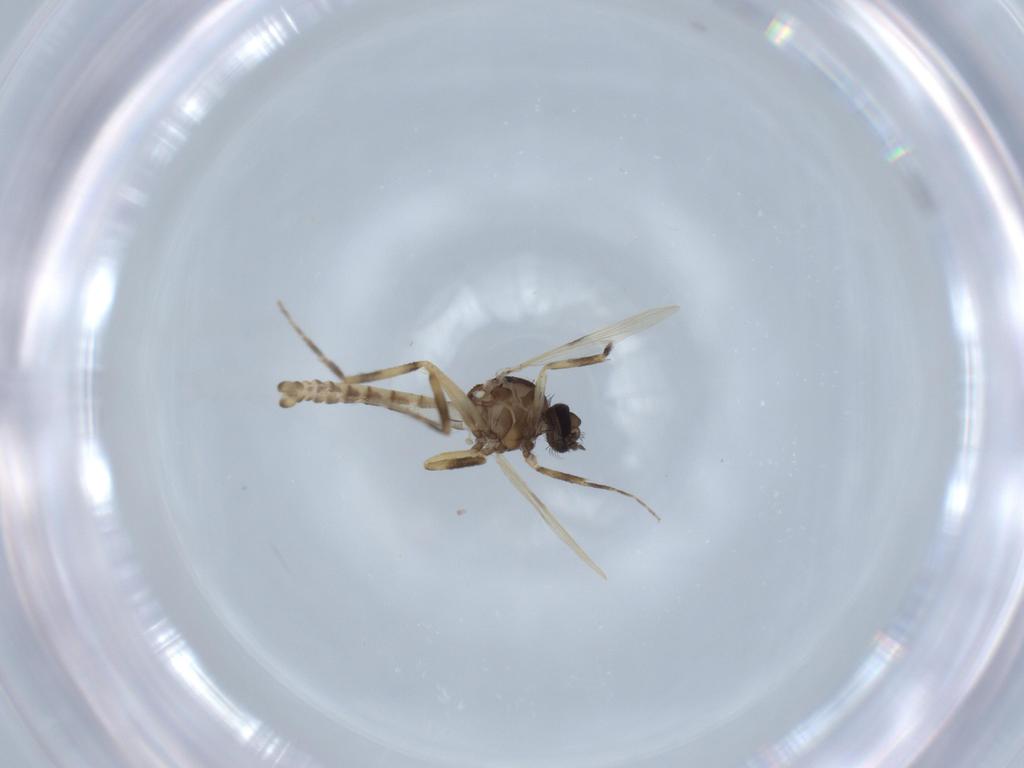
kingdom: Animalia
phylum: Arthropoda
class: Insecta
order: Diptera
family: Ceratopogonidae
